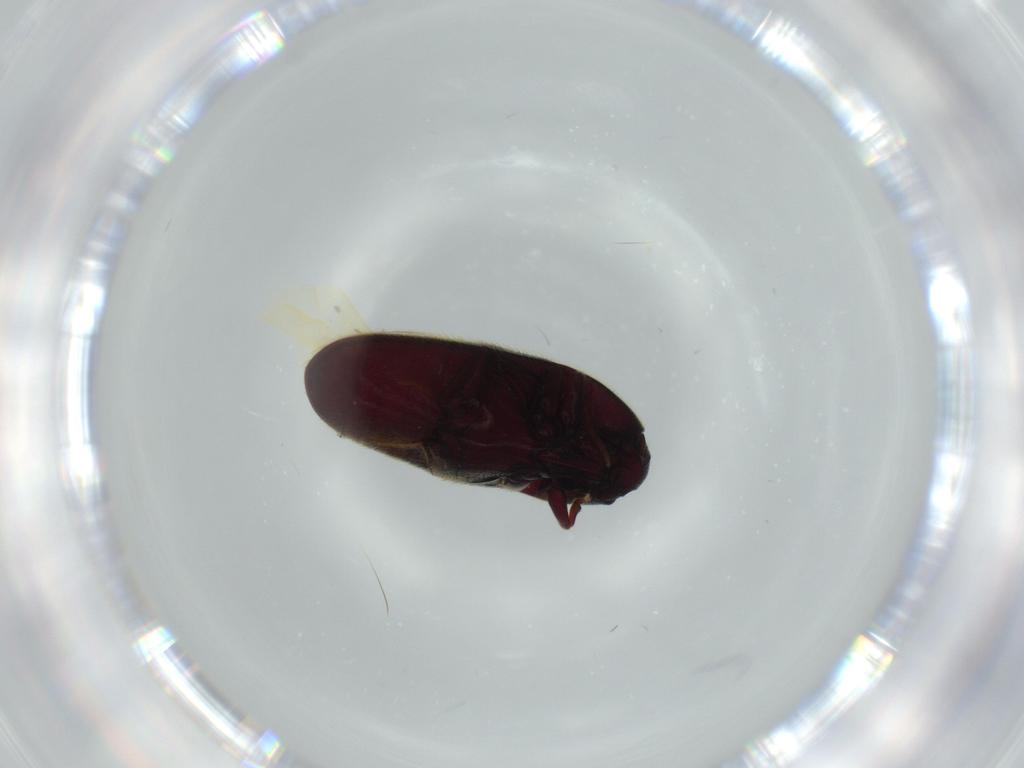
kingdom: Animalia
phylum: Arthropoda
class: Insecta
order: Coleoptera
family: Throscidae
